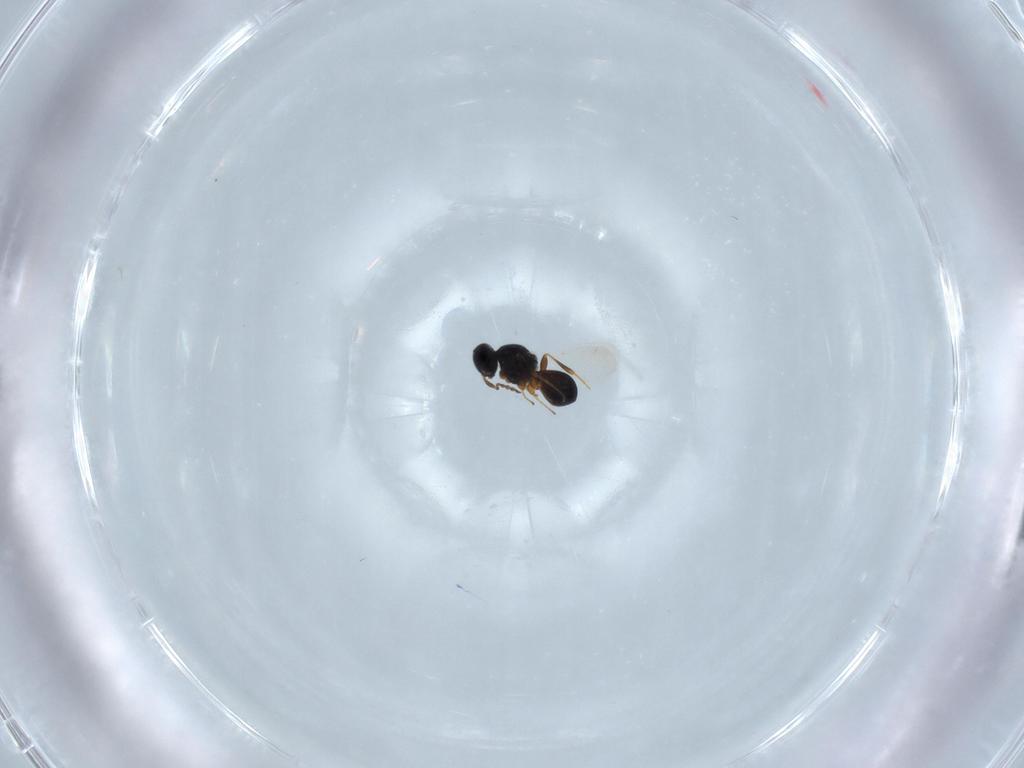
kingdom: Animalia
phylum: Arthropoda
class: Insecta
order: Hymenoptera
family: Platygastridae
